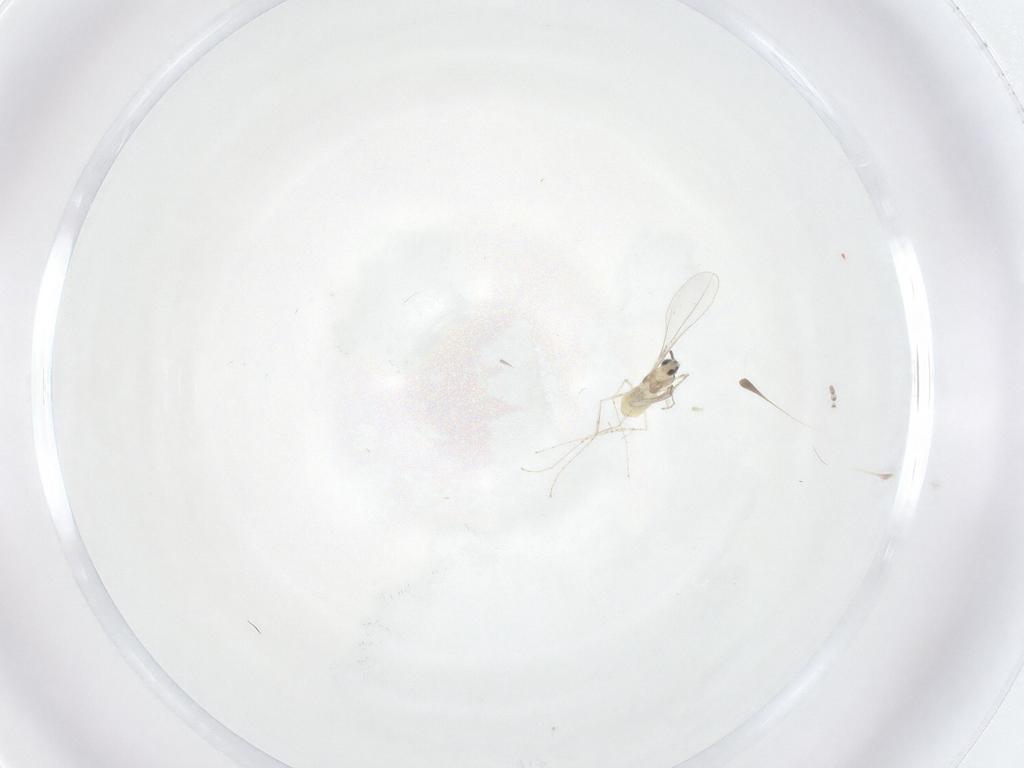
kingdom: Animalia
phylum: Arthropoda
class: Insecta
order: Diptera
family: Cecidomyiidae
